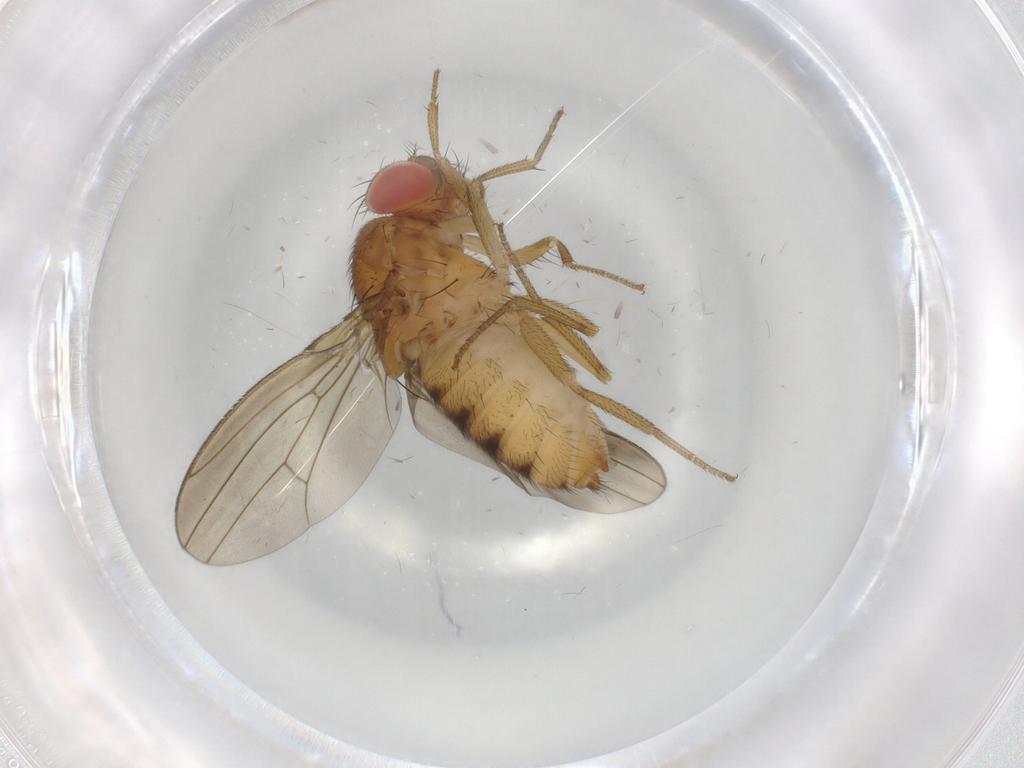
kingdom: Animalia
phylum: Arthropoda
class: Insecta
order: Diptera
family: Drosophilidae
